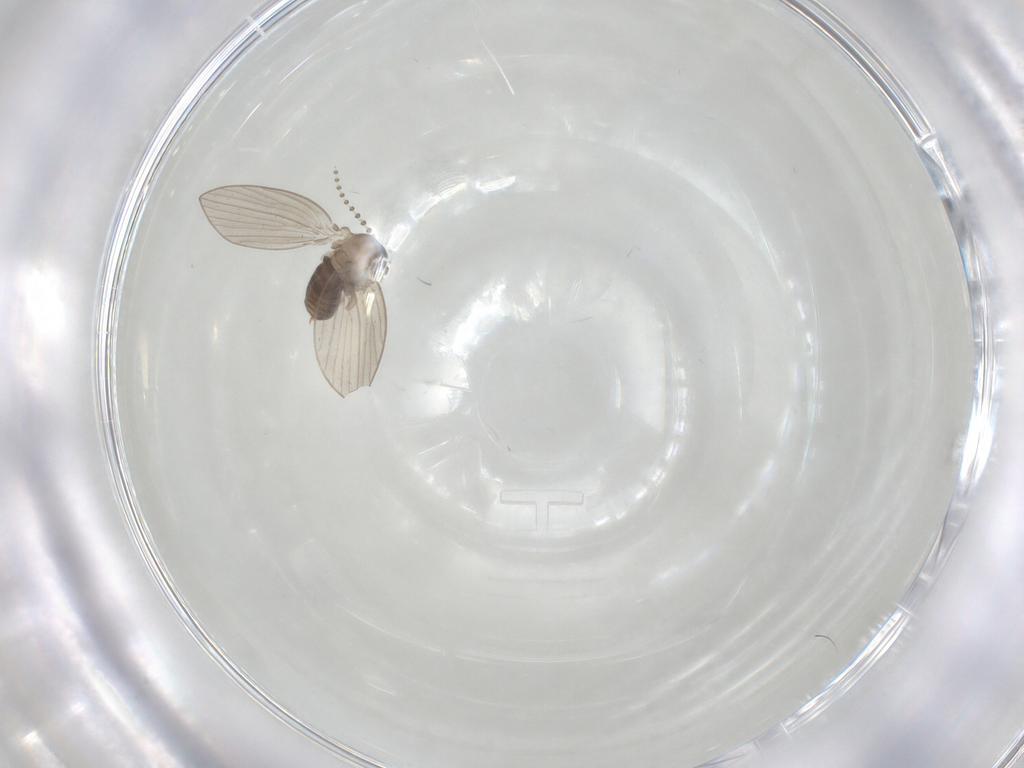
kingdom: Animalia
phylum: Arthropoda
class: Insecta
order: Diptera
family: Psychodidae
